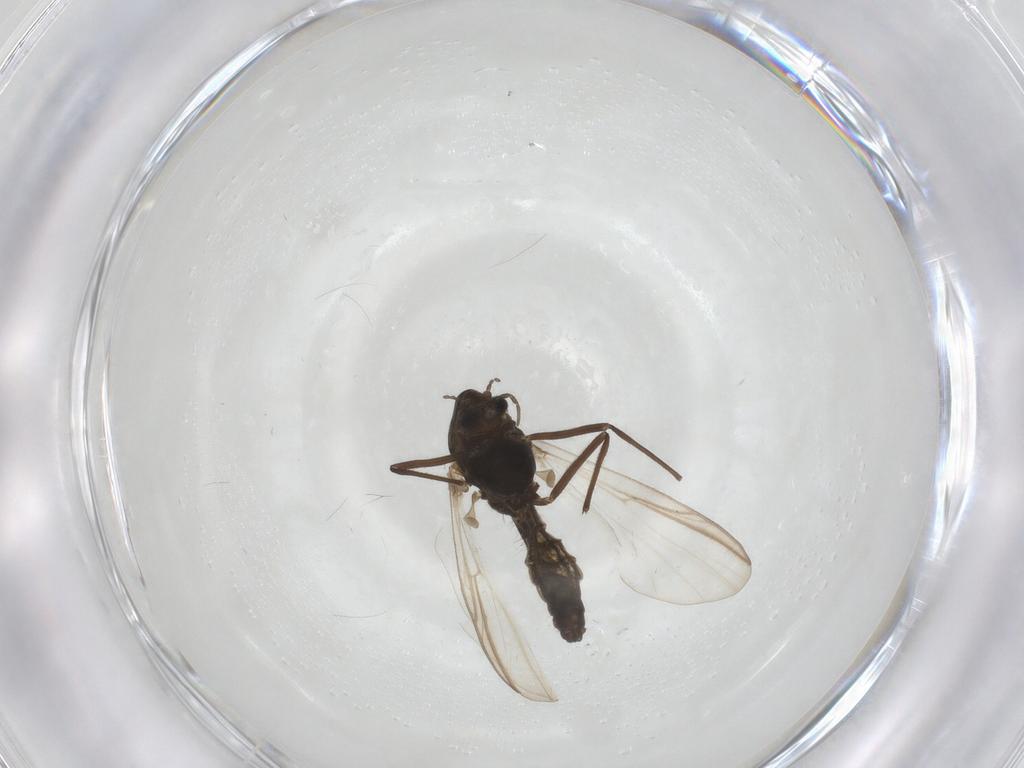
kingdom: Animalia
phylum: Arthropoda
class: Insecta
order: Diptera
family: Chironomidae
